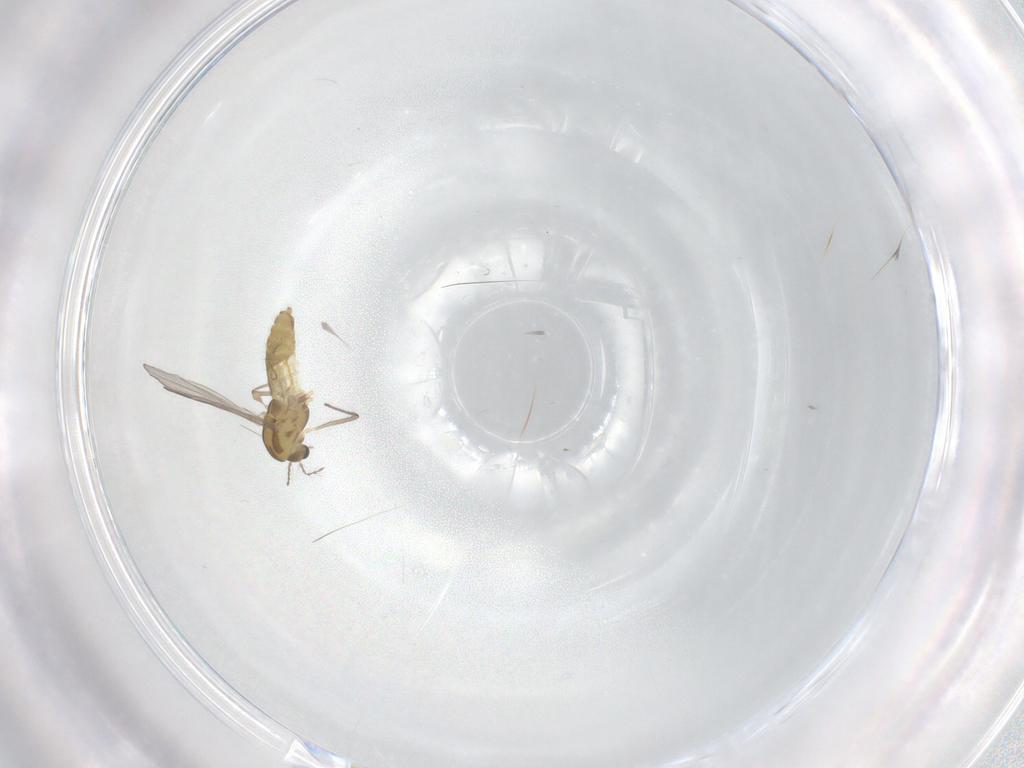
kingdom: Animalia
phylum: Arthropoda
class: Insecta
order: Diptera
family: Chironomidae
